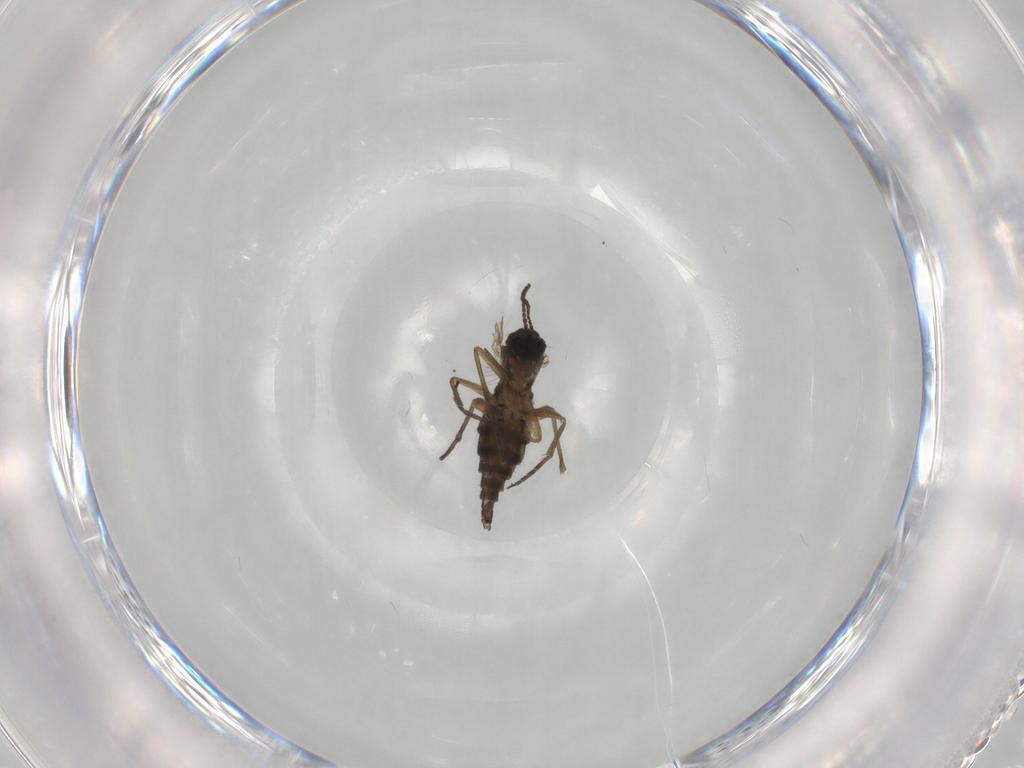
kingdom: Animalia
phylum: Arthropoda
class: Insecta
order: Diptera
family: Sciaridae
